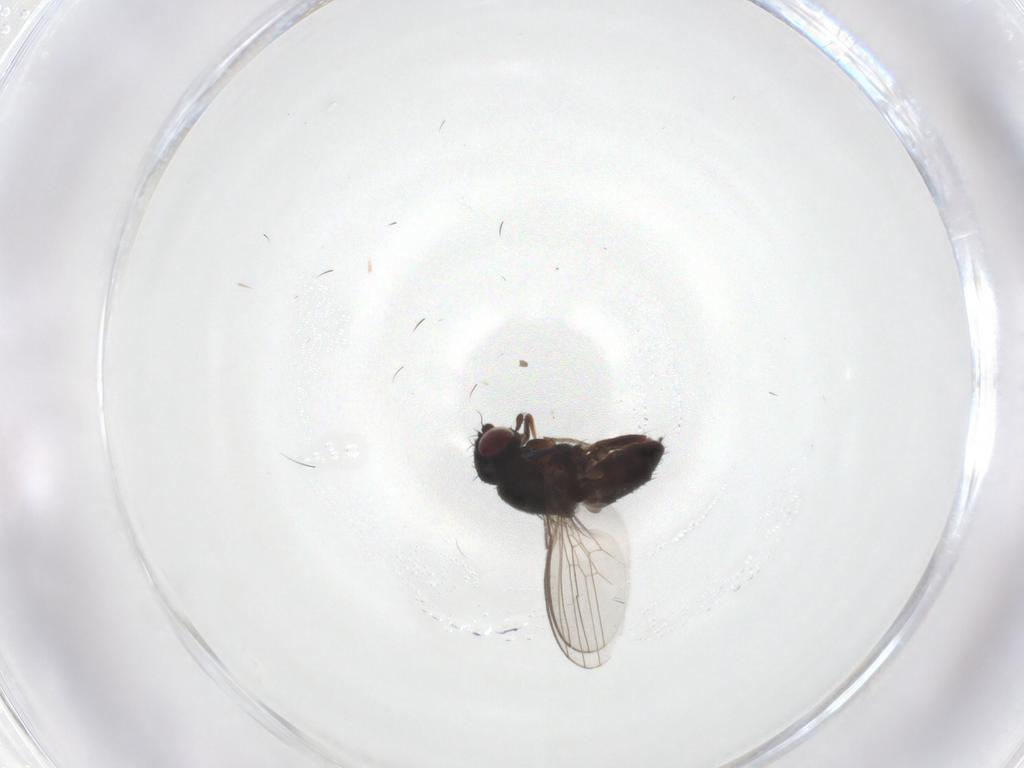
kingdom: Animalia
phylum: Arthropoda
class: Insecta
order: Diptera
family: Milichiidae
